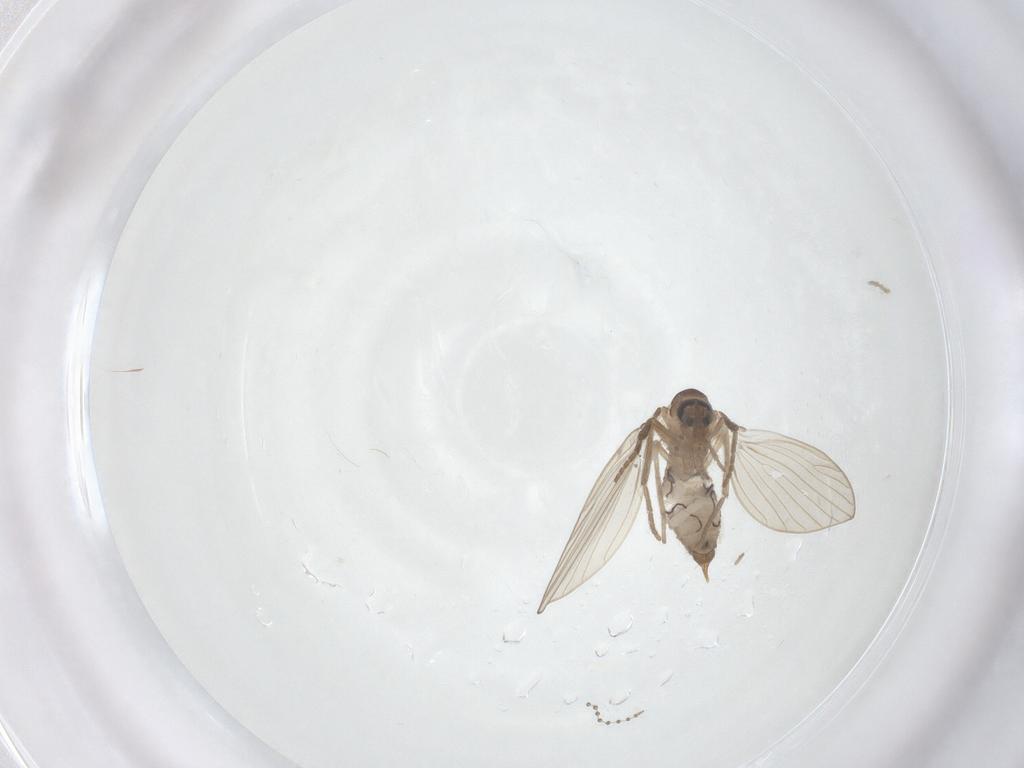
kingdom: Animalia
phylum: Arthropoda
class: Insecta
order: Diptera
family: Psychodidae
